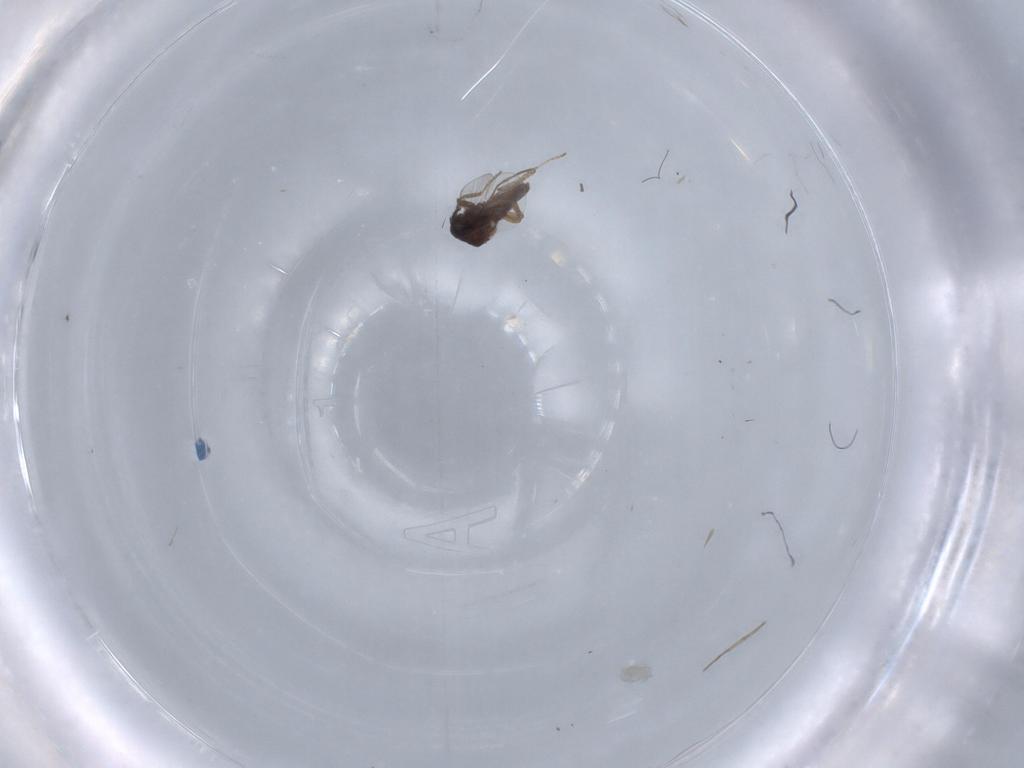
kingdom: Animalia
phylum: Arthropoda
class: Insecta
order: Diptera
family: Ceratopogonidae
